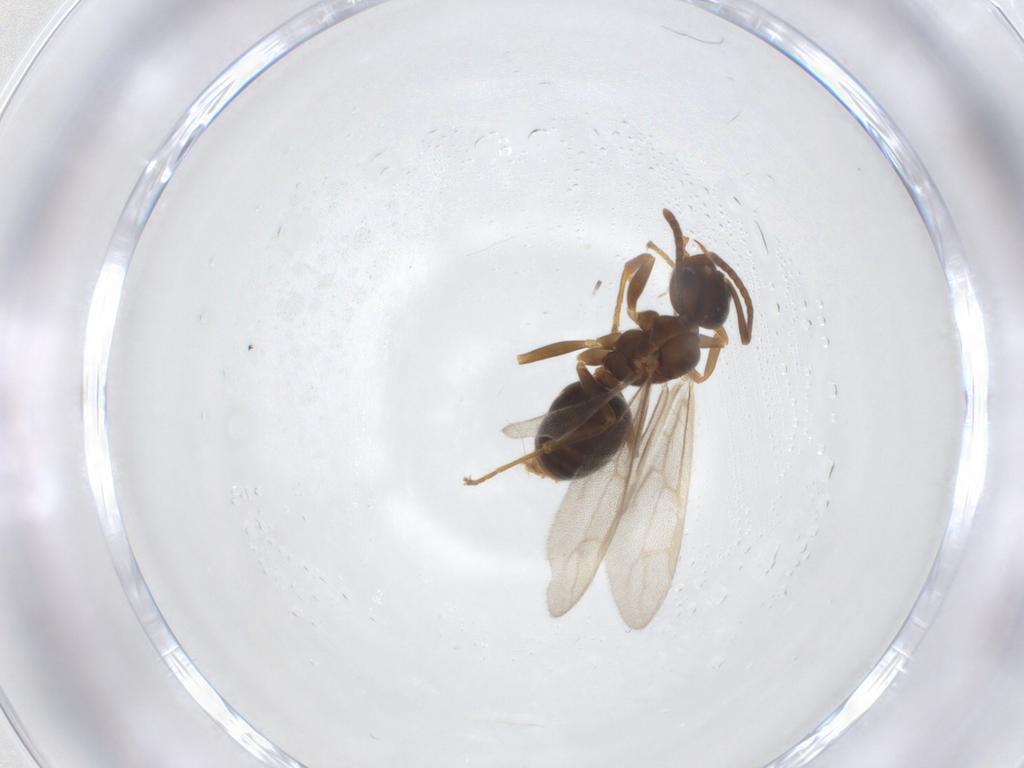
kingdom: Animalia
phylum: Arthropoda
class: Insecta
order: Hymenoptera
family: Formicidae
